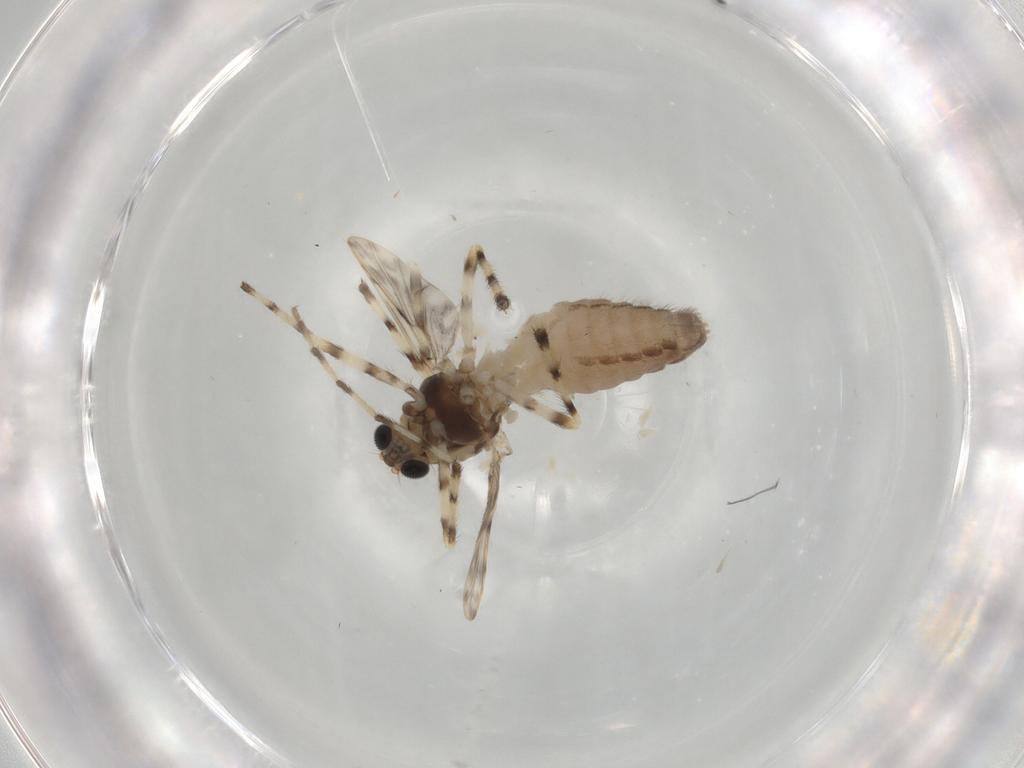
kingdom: Animalia
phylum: Arthropoda
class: Insecta
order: Diptera
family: Chironomidae
